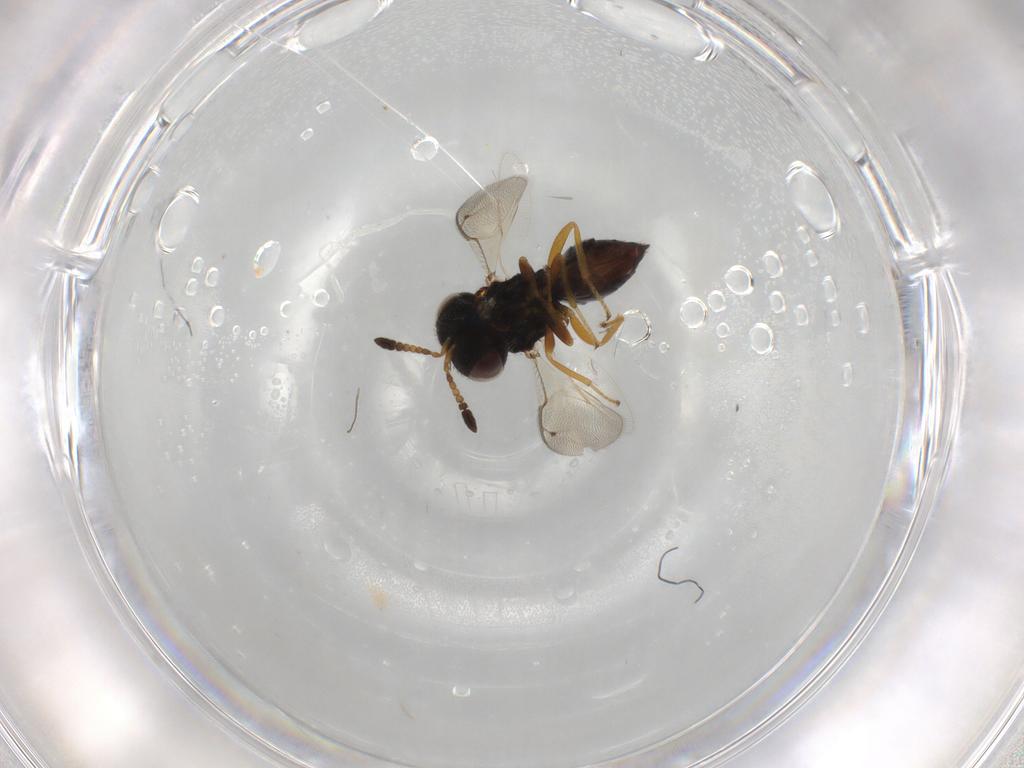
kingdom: Animalia
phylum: Arthropoda
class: Insecta
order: Hymenoptera
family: Scelionidae
